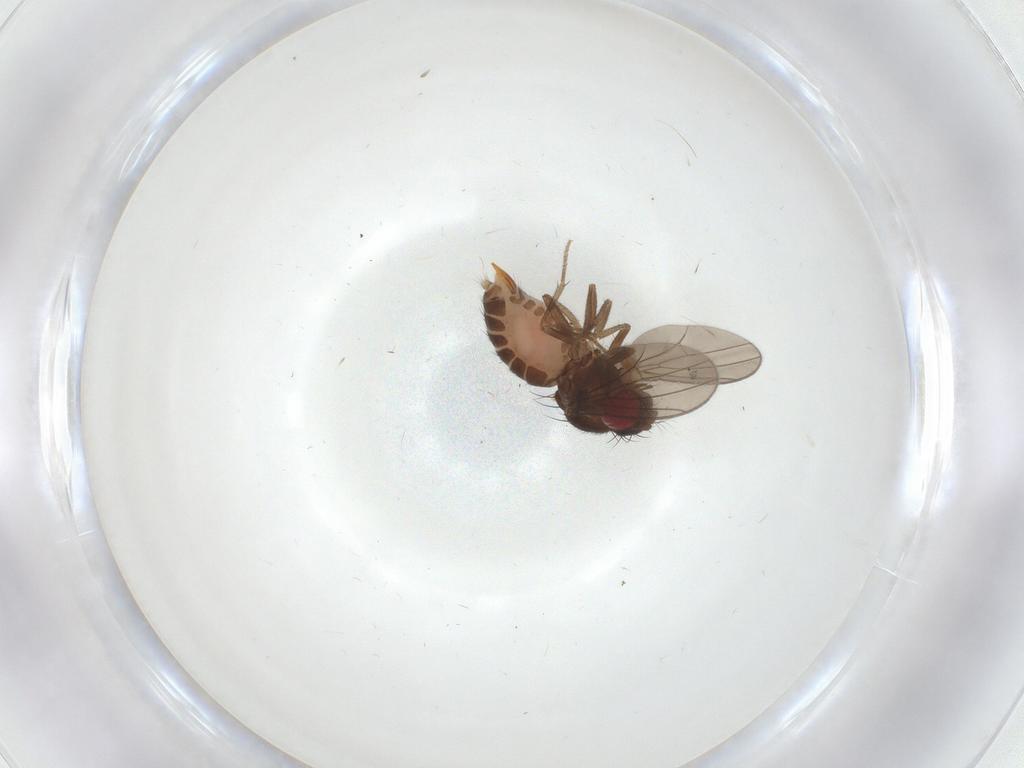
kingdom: Animalia
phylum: Arthropoda
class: Insecta
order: Diptera
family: Drosophilidae
